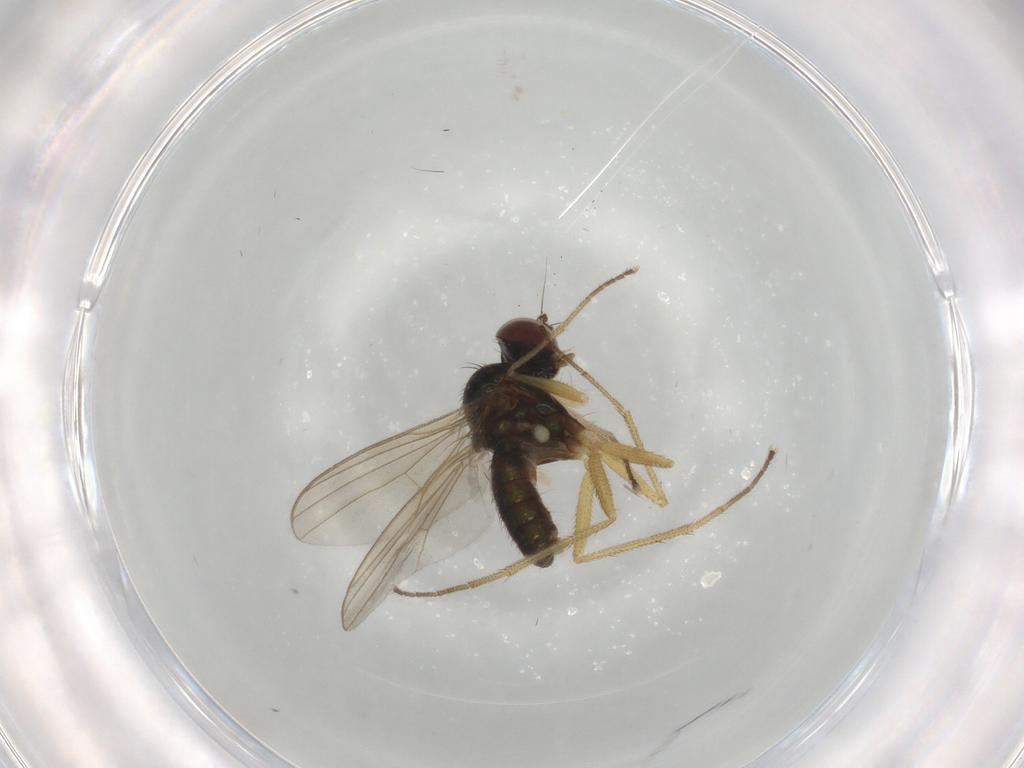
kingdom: Animalia
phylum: Arthropoda
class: Insecta
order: Diptera
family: Dolichopodidae
